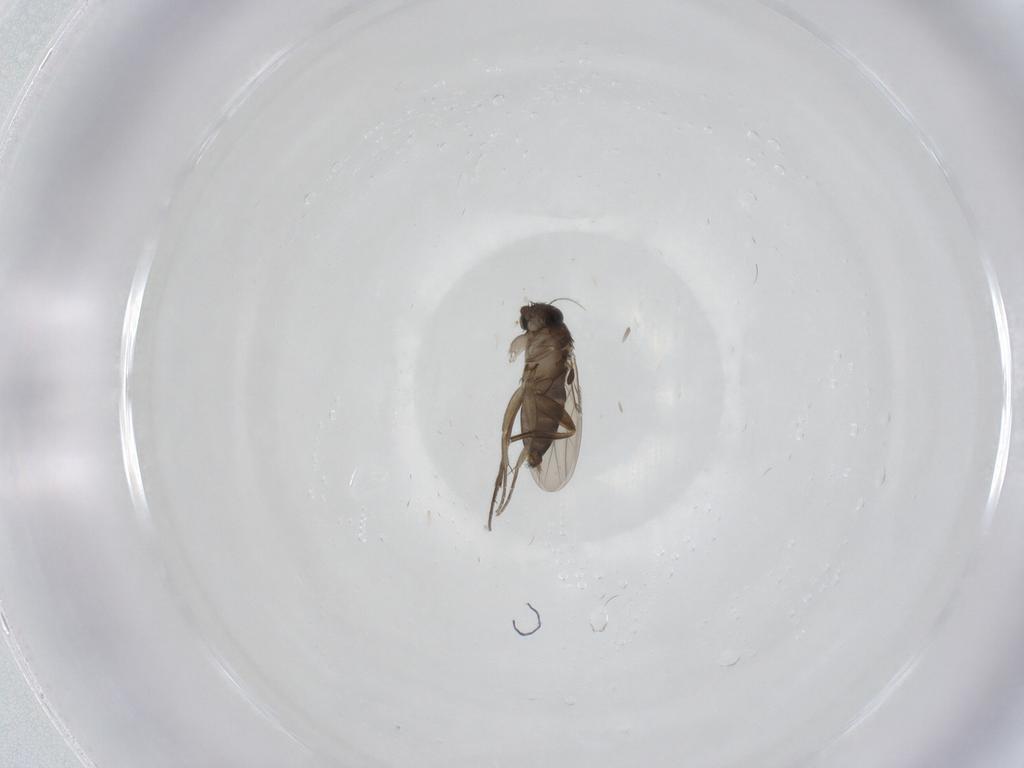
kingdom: Animalia
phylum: Arthropoda
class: Insecta
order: Diptera
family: Phoridae
